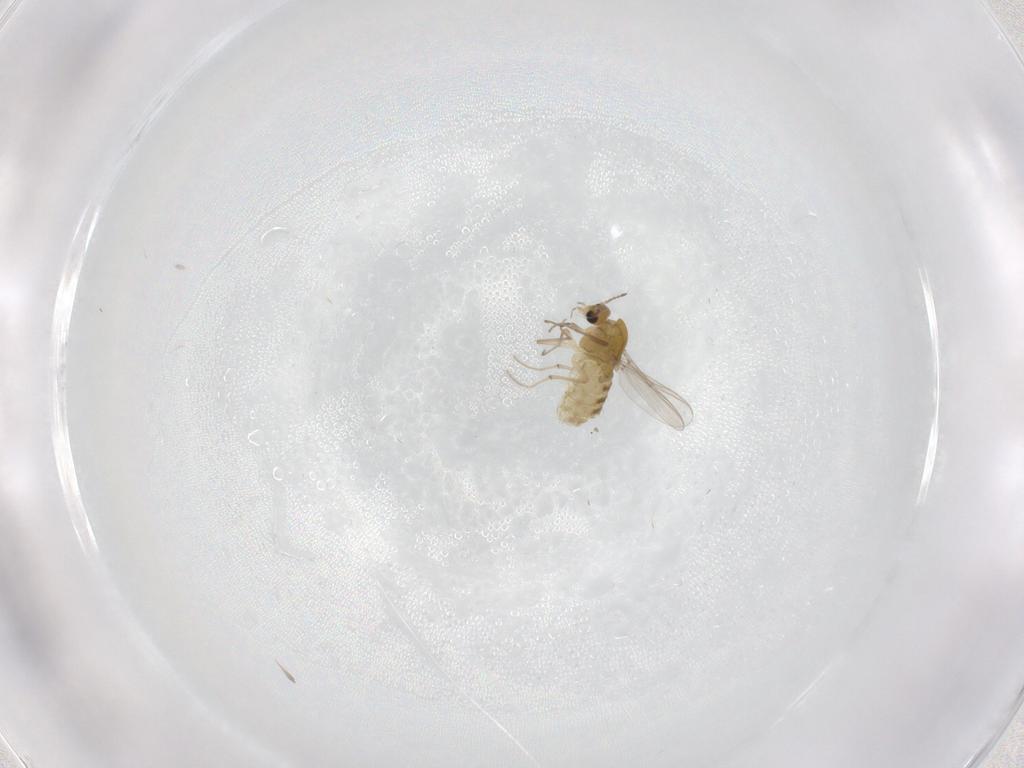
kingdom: Animalia
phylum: Arthropoda
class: Insecta
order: Diptera
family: Chironomidae
